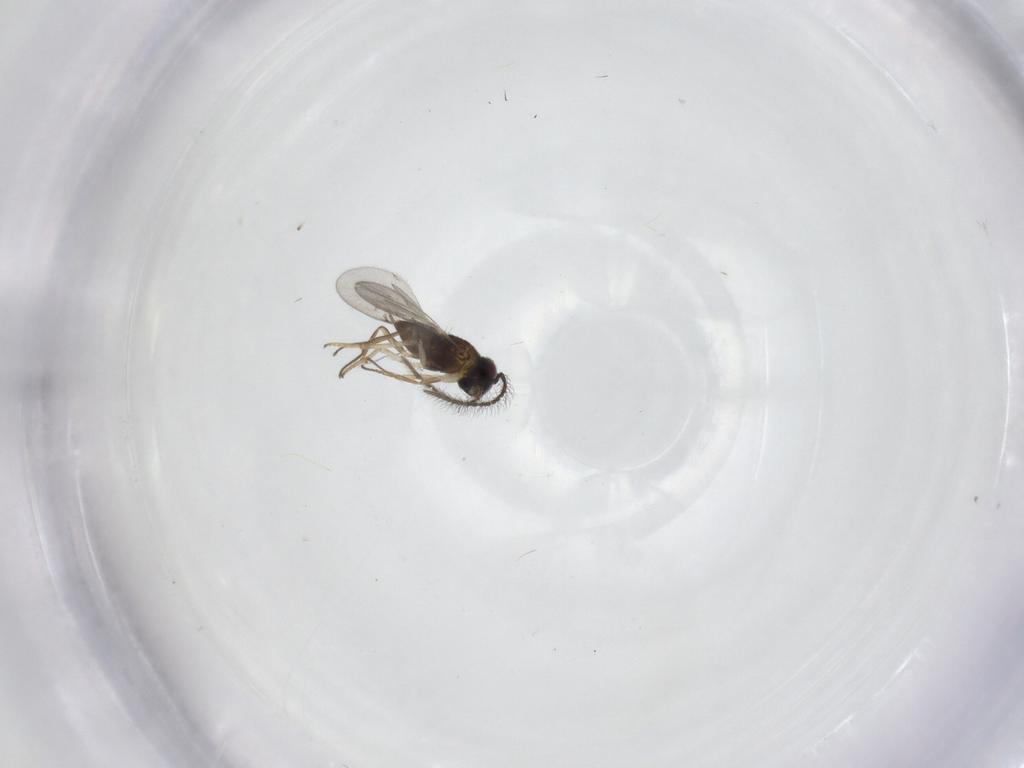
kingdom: Animalia
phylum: Arthropoda
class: Insecta
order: Hymenoptera
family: Encyrtidae
